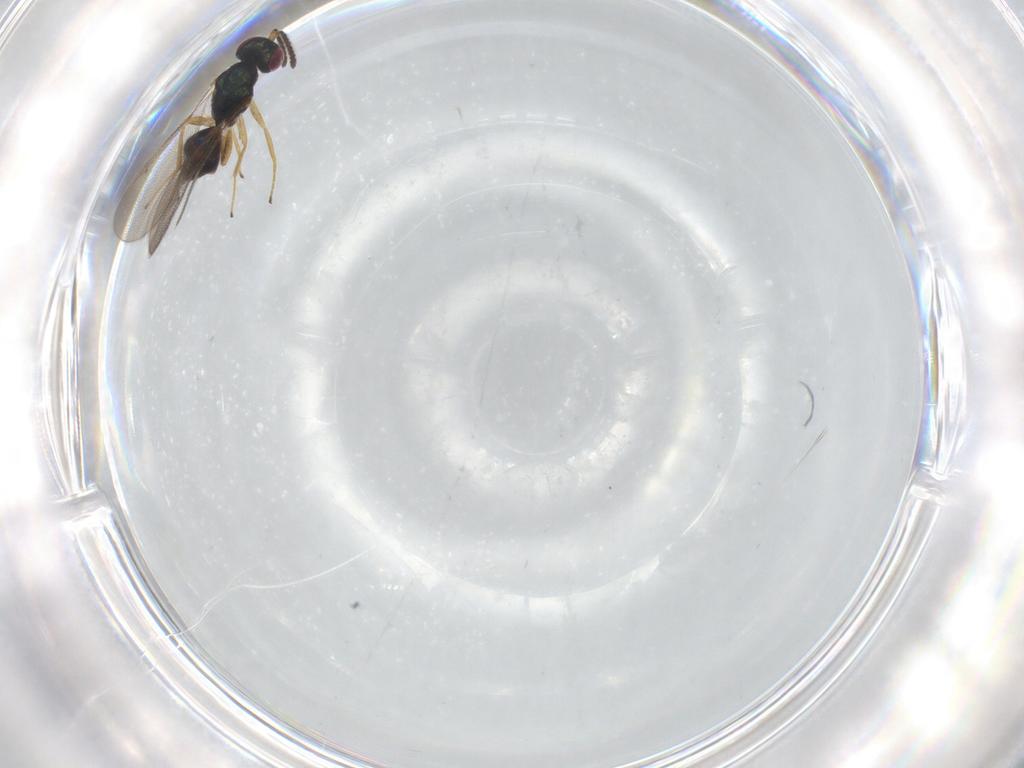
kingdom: Animalia
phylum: Arthropoda
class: Insecta
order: Hymenoptera
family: Tetracampidae
